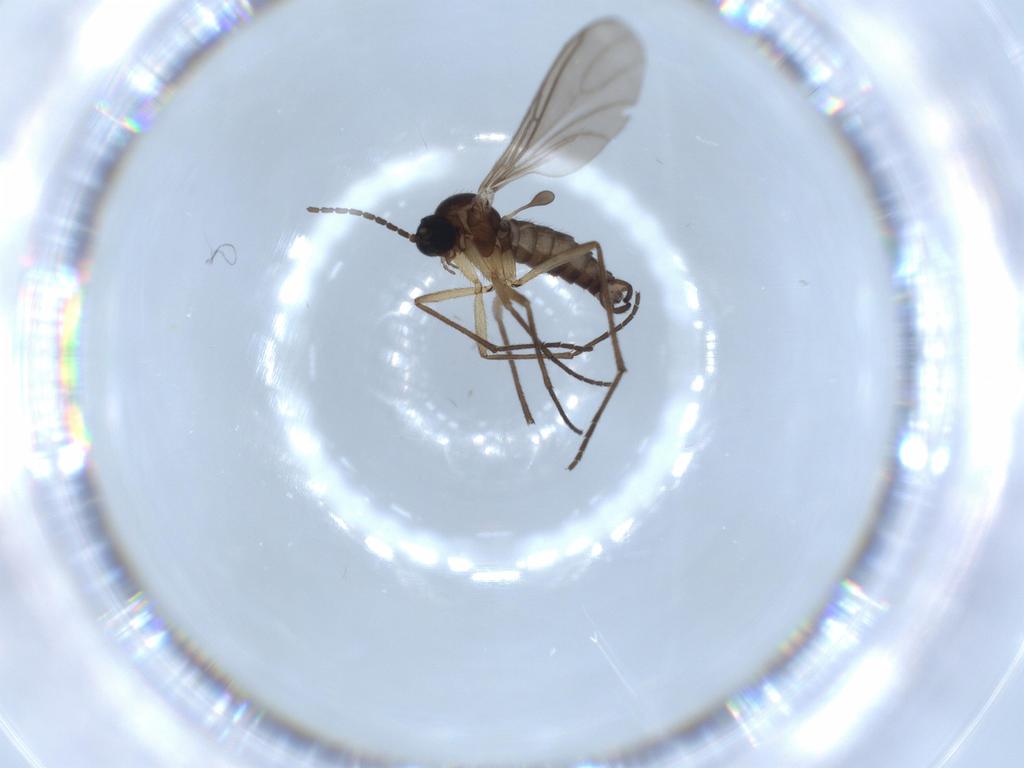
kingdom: Animalia
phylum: Arthropoda
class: Insecta
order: Diptera
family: Sciaridae
